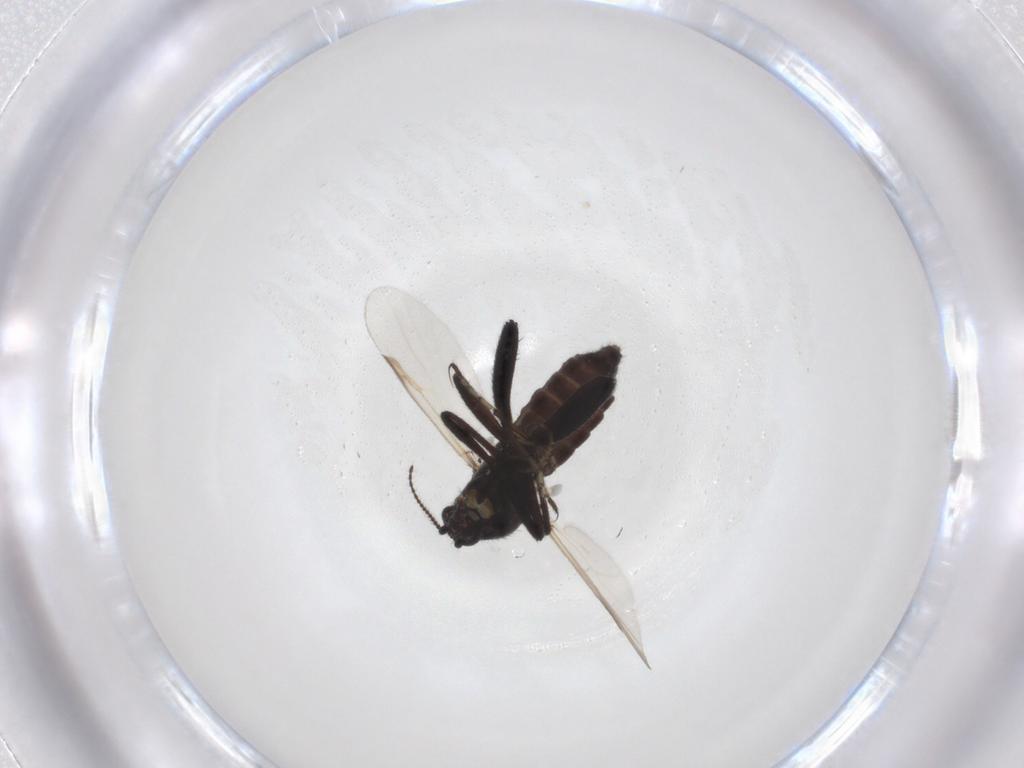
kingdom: Animalia
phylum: Arthropoda
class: Insecta
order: Diptera
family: Ceratopogonidae
